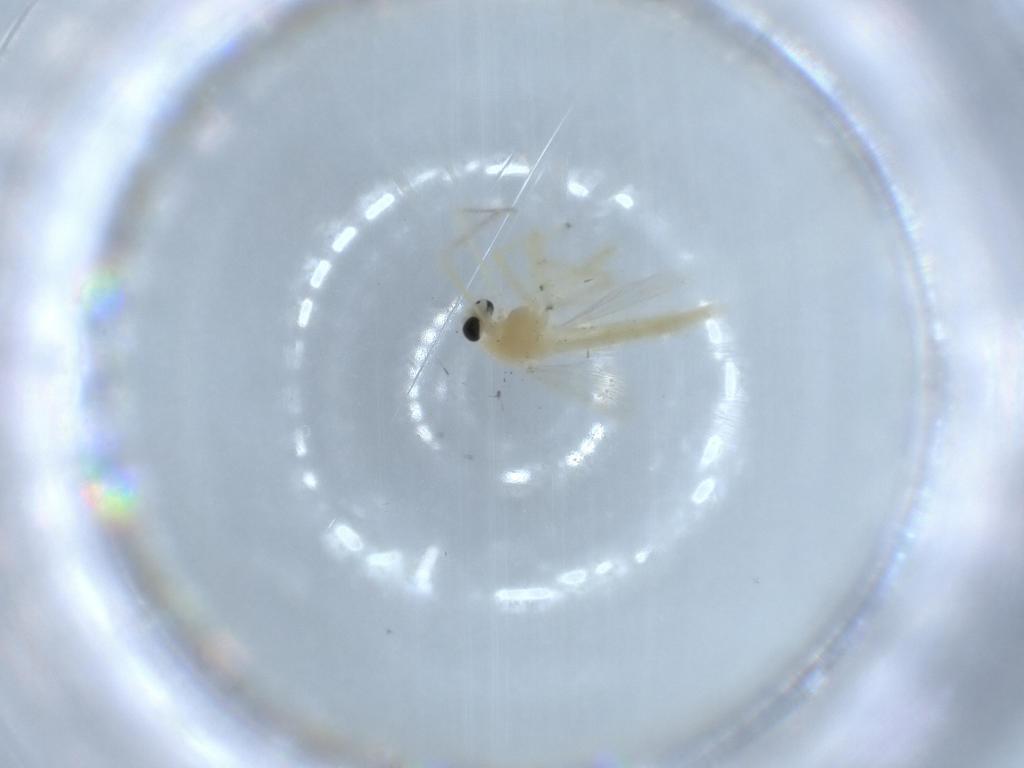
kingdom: Animalia
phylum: Arthropoda
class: Insecta
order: Diptera
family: Chironomidae
